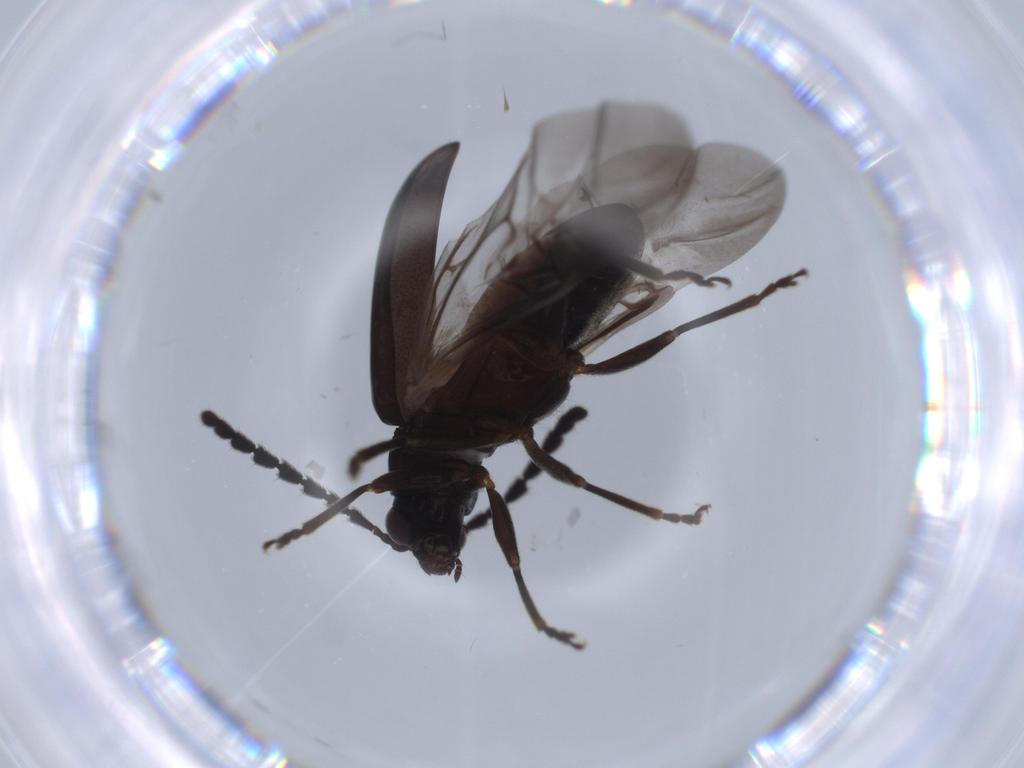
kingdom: Animalia
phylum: Arthropoda
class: Insecta
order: Coleoptera
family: Chrysomelidae
